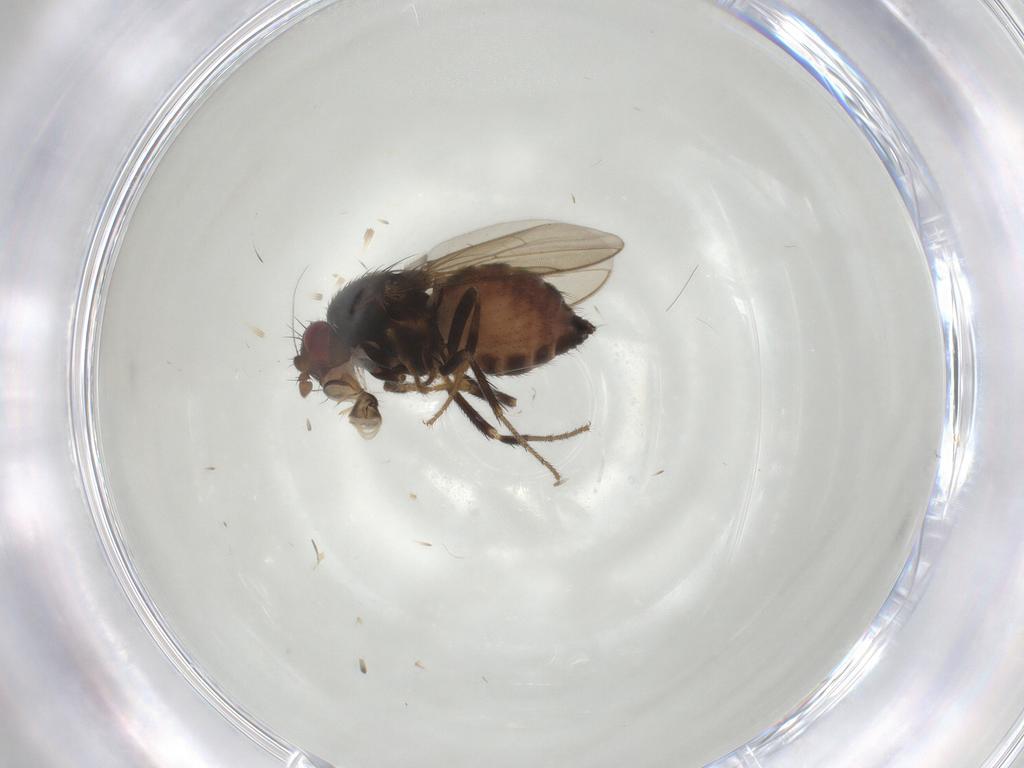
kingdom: Animalia
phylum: Arthropoda
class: Insecta
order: Diptera
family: Sphaeroceridae
